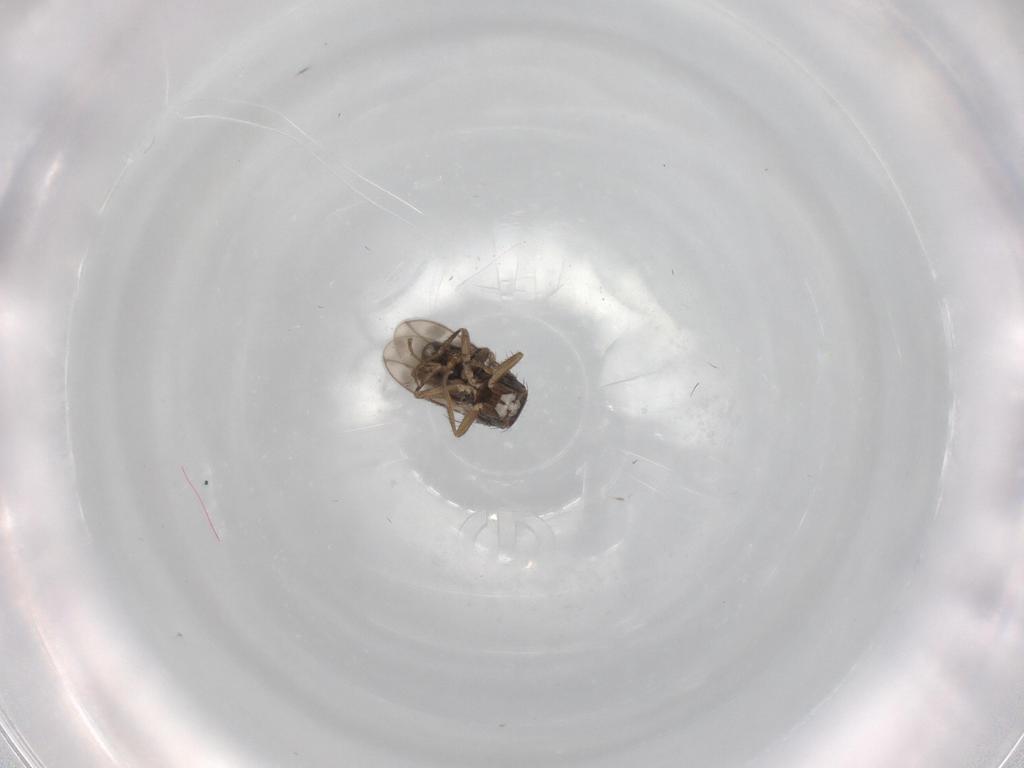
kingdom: Animalia
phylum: Arthropoda
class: Insecta
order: Diptera
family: Sphaeroceridae
